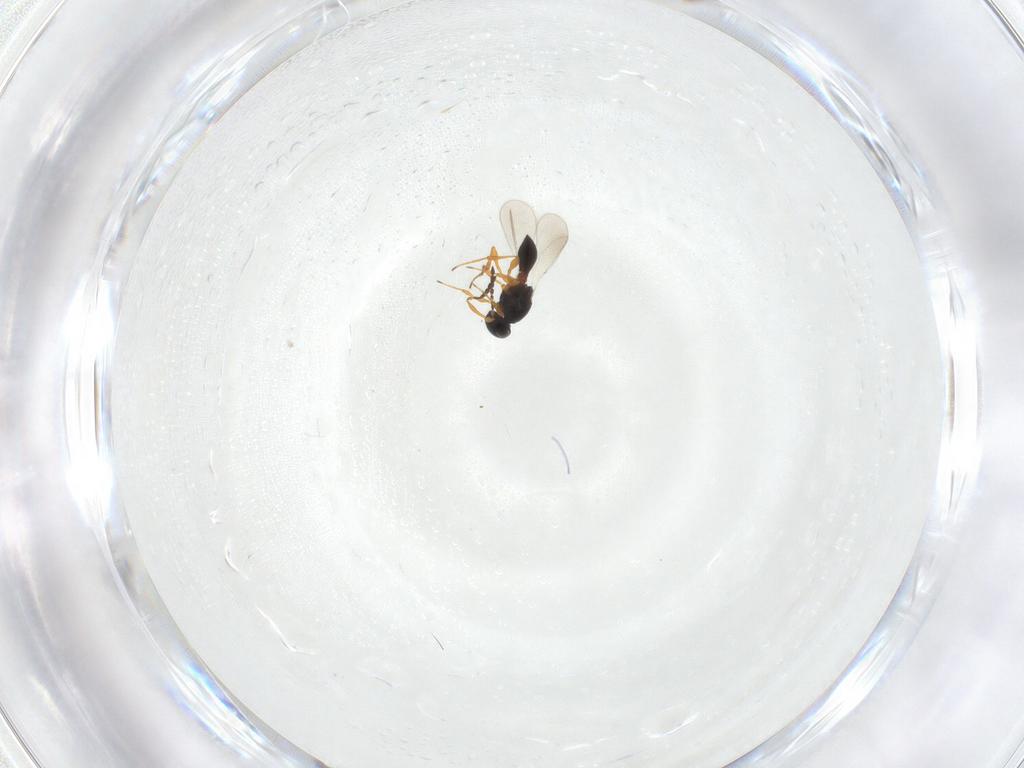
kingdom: Animalia
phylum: Arthropoda
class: Insecta
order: Hymenoptera
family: Platygastridae
